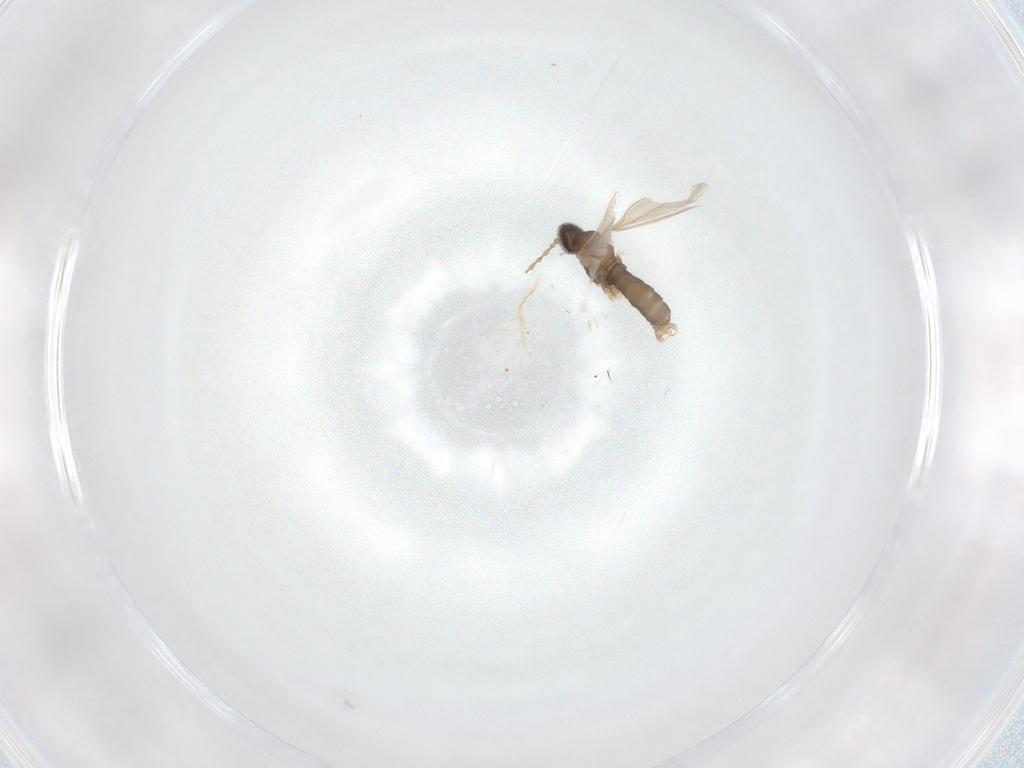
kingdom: Animalia
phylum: Arthropoda
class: Insecta
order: Diptera
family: Cecidomyiidae
